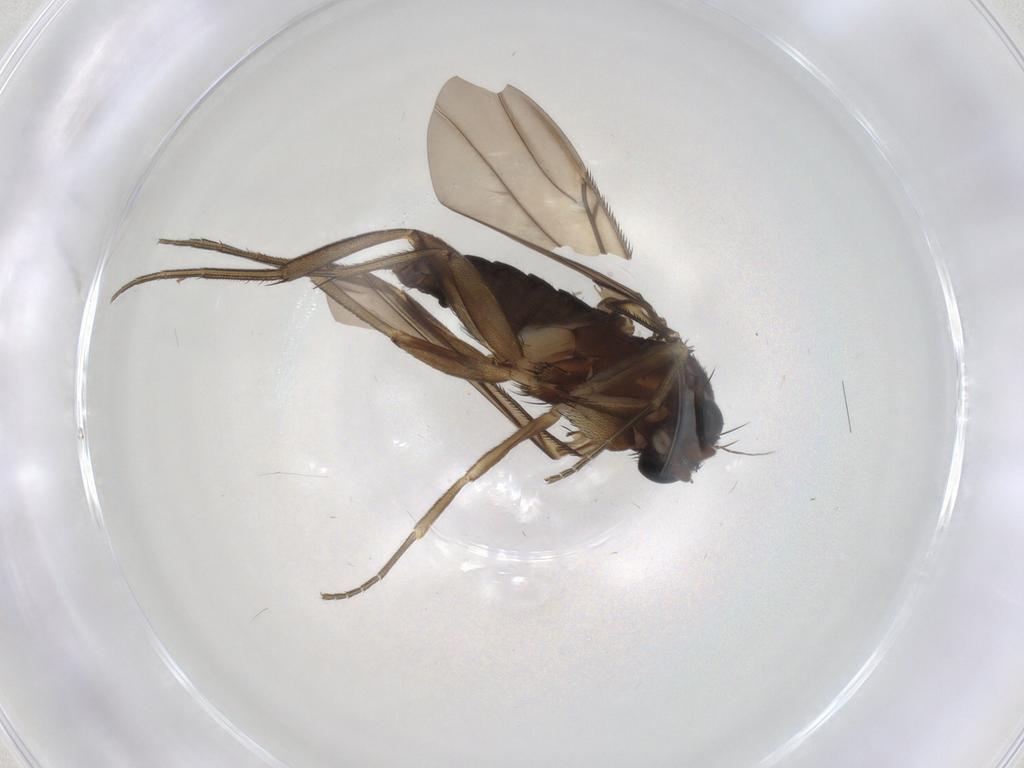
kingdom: Animalia
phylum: Arthropoda
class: Insecta
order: Diptera
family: Phoridae
